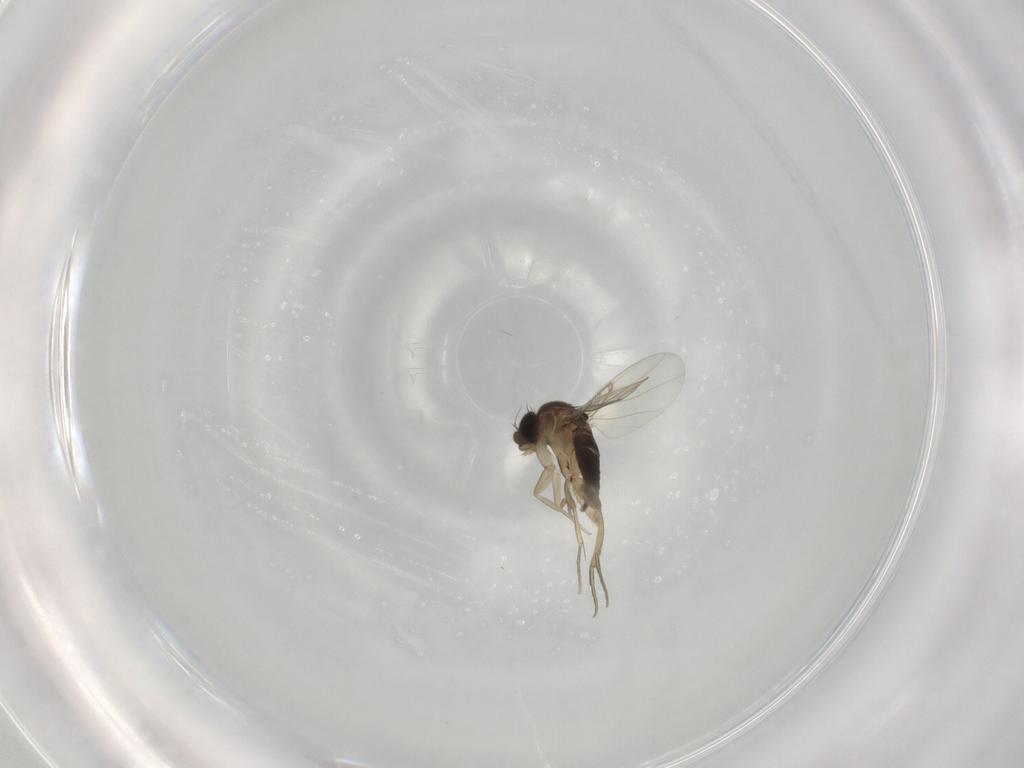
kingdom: Animalia
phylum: Arthropoda
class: Insecta
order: Diptera
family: Phoridae
